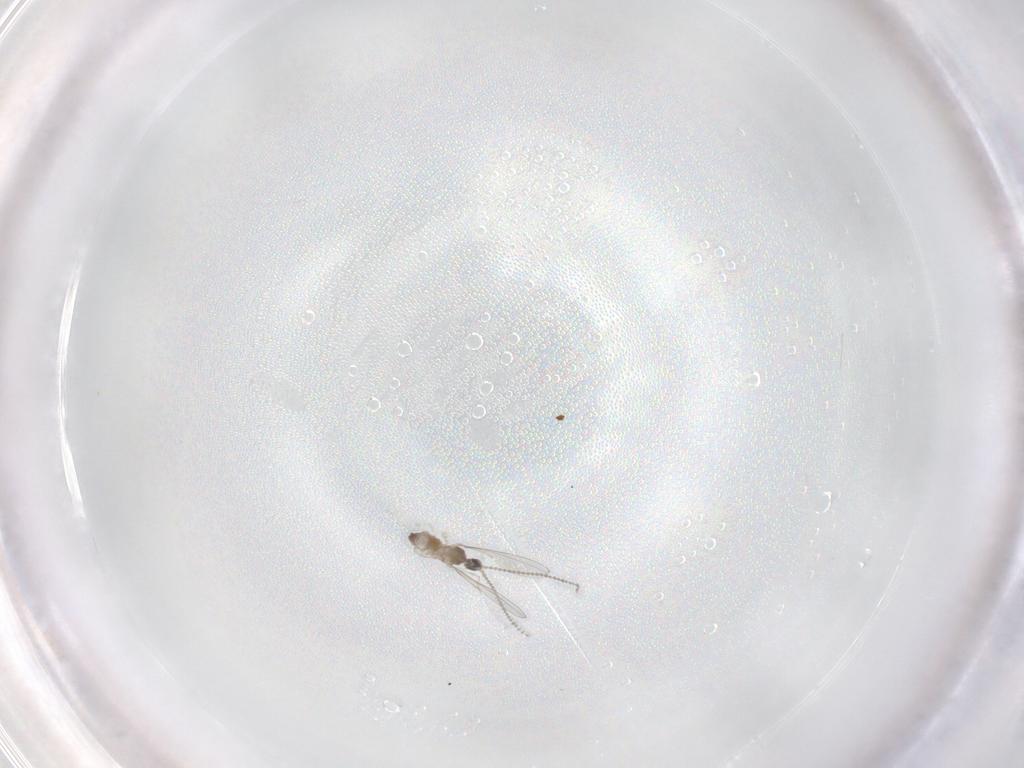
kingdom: Animalia
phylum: Arthropoda
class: Insecta
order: Diptera
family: Cecidomyiidae
